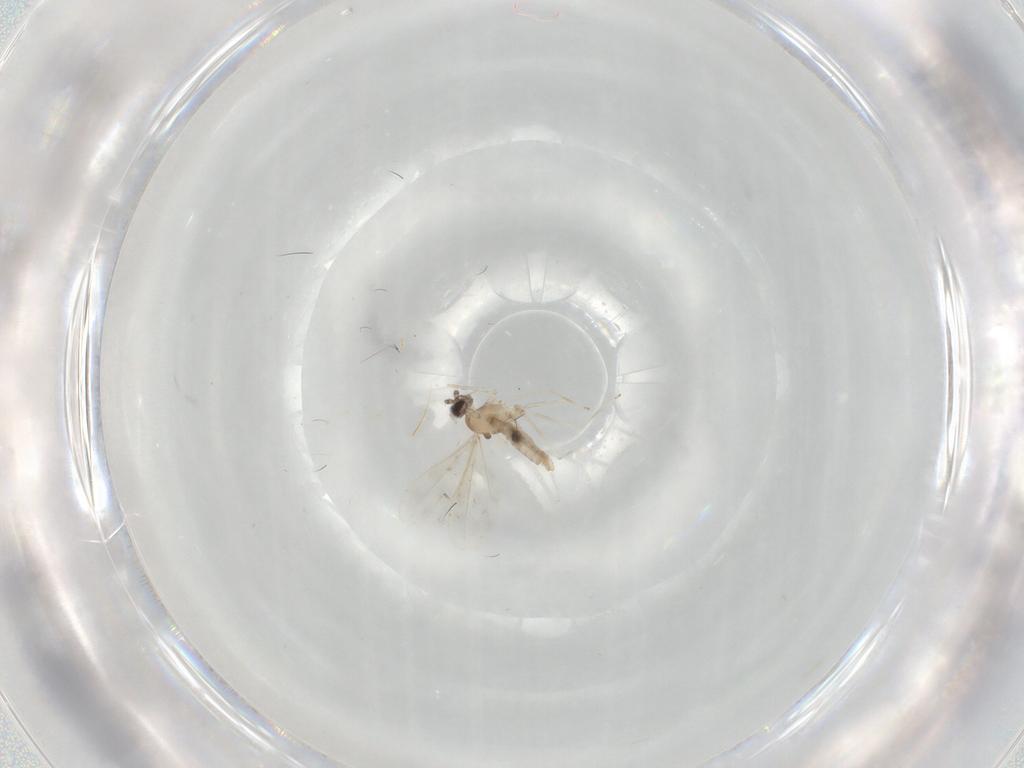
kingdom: Animalia
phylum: Arthropoda
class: Insecta
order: Diptera
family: Cecidomyiidae
